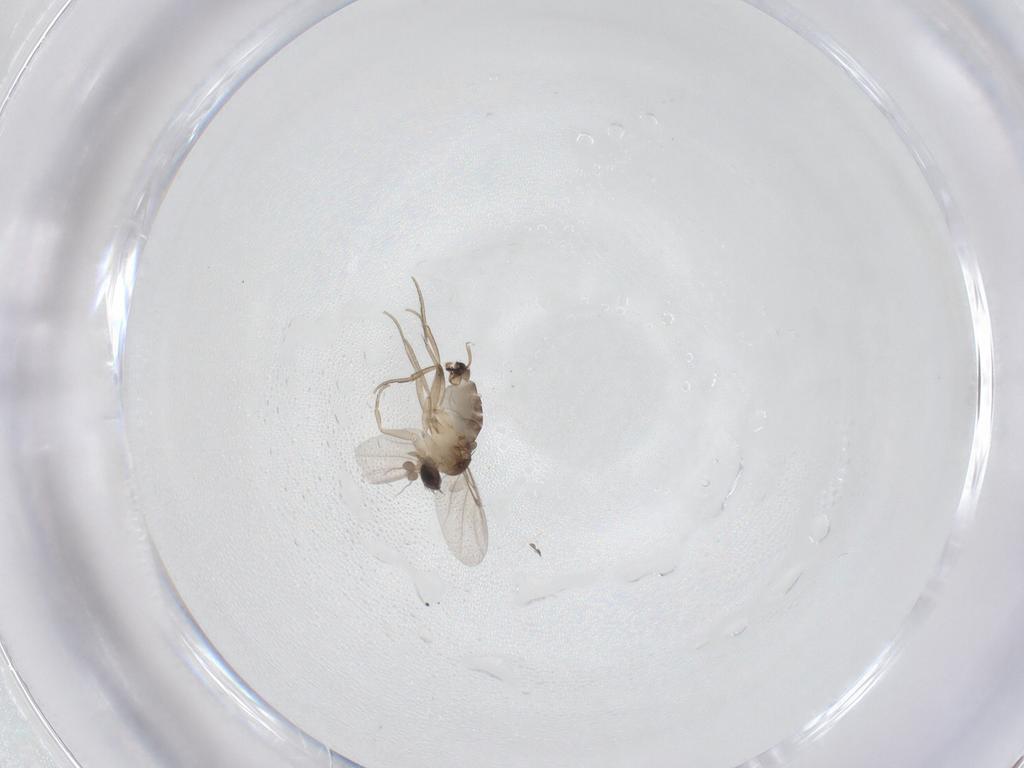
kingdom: Animalia
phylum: Arthropoda
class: Insecta
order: Diptera
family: Phoridae
